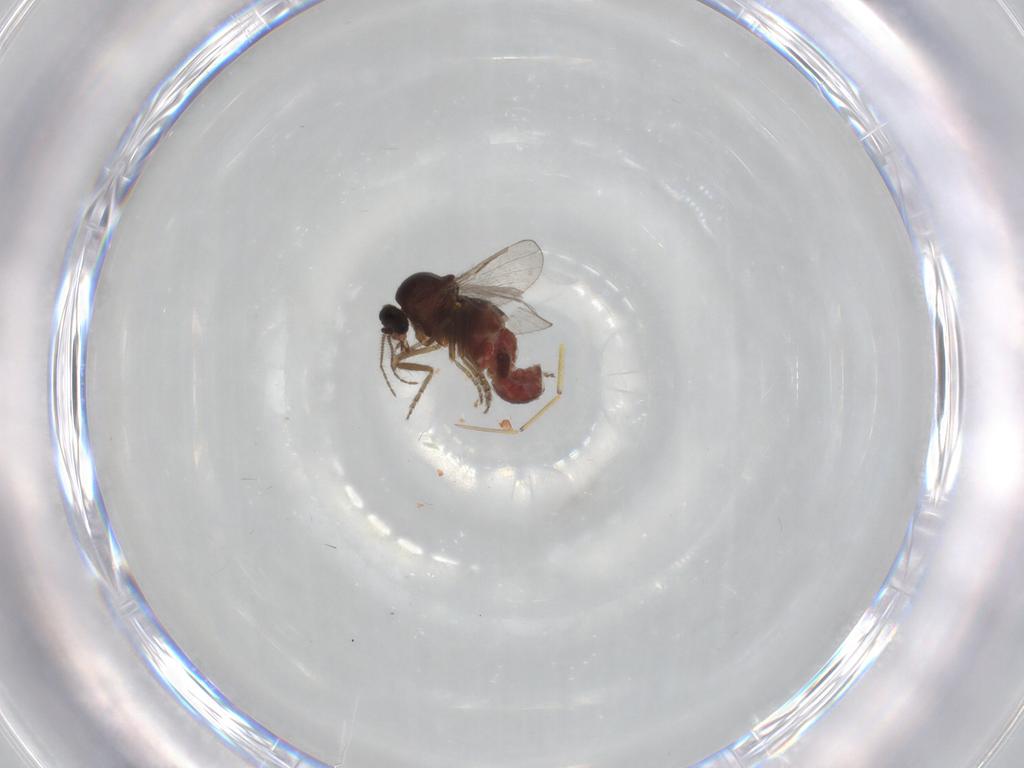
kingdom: Animalia
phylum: Arthropoda
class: Insecta
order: Diptera
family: Ceratopogonidae
